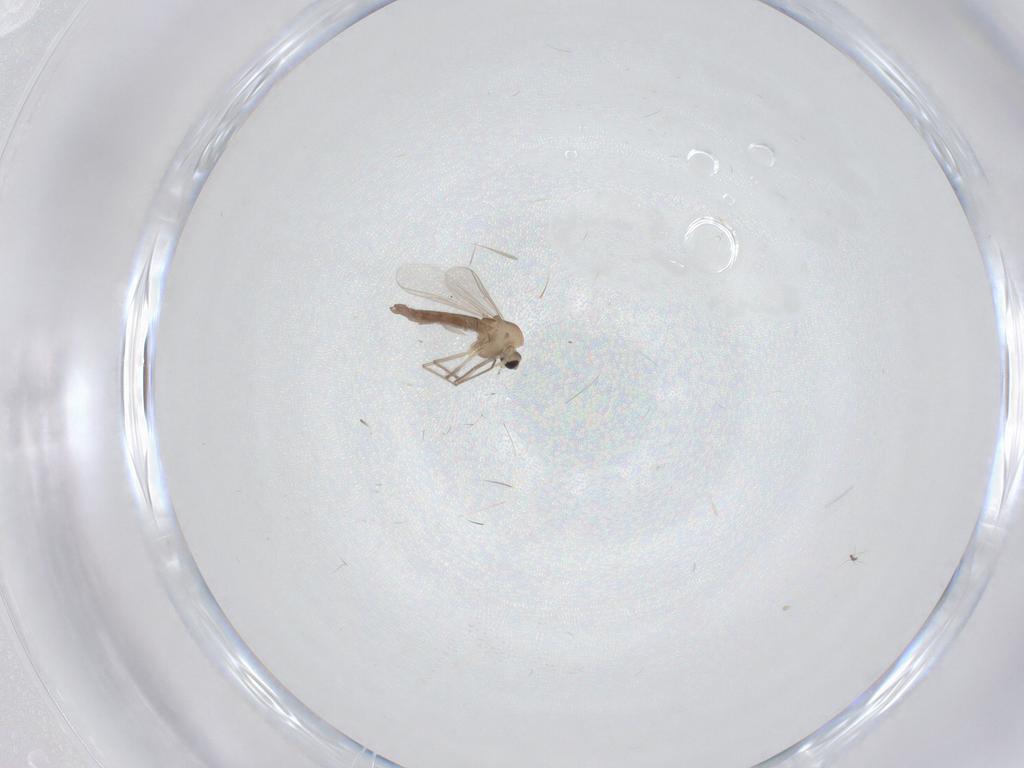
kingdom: Animalia
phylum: Arthropoda
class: Insecta
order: Diptera
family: Chironomidae
